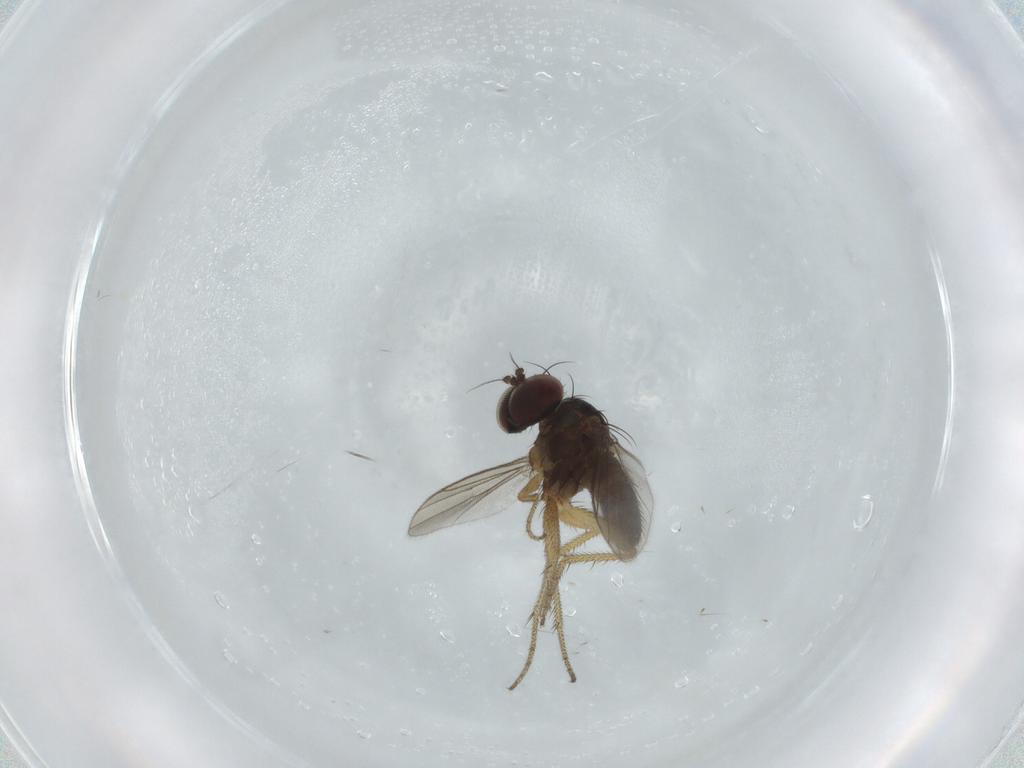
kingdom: Animalia
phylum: Arthropoda
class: Insecta
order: Diptera
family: Dolichopodidae
